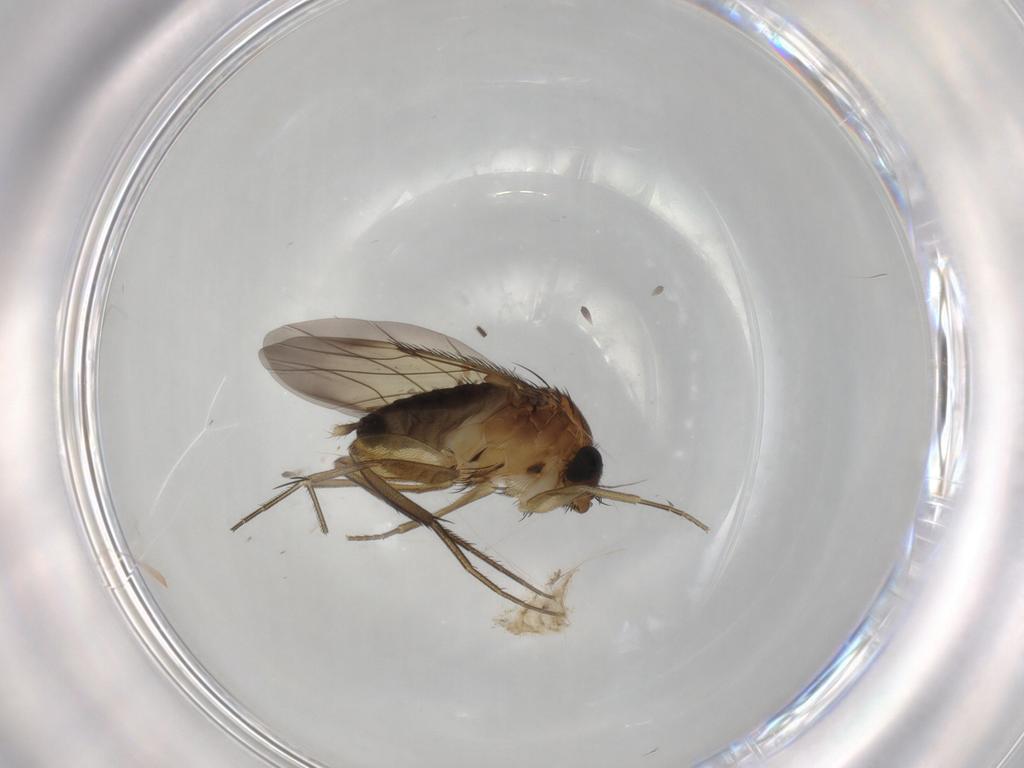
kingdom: Animalia
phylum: Arthropoda
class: Insecta
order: Diptera
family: Phoridae
